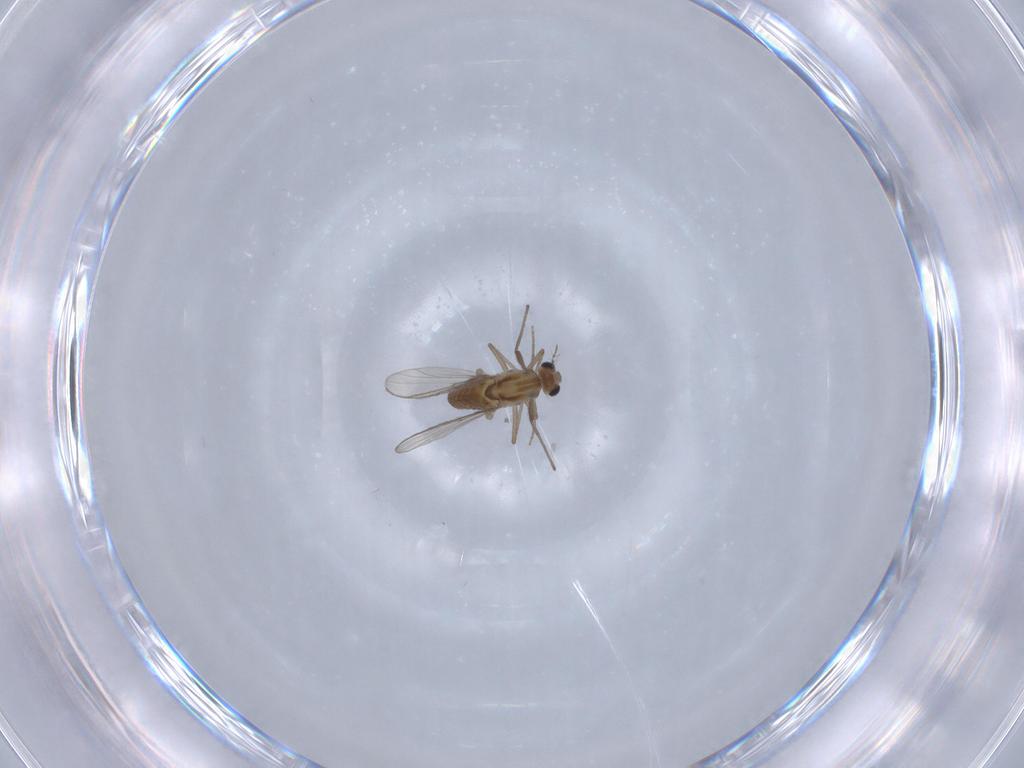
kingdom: Animalia
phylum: Arthropoda
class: Insecta
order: Diptera
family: Chironomidae
